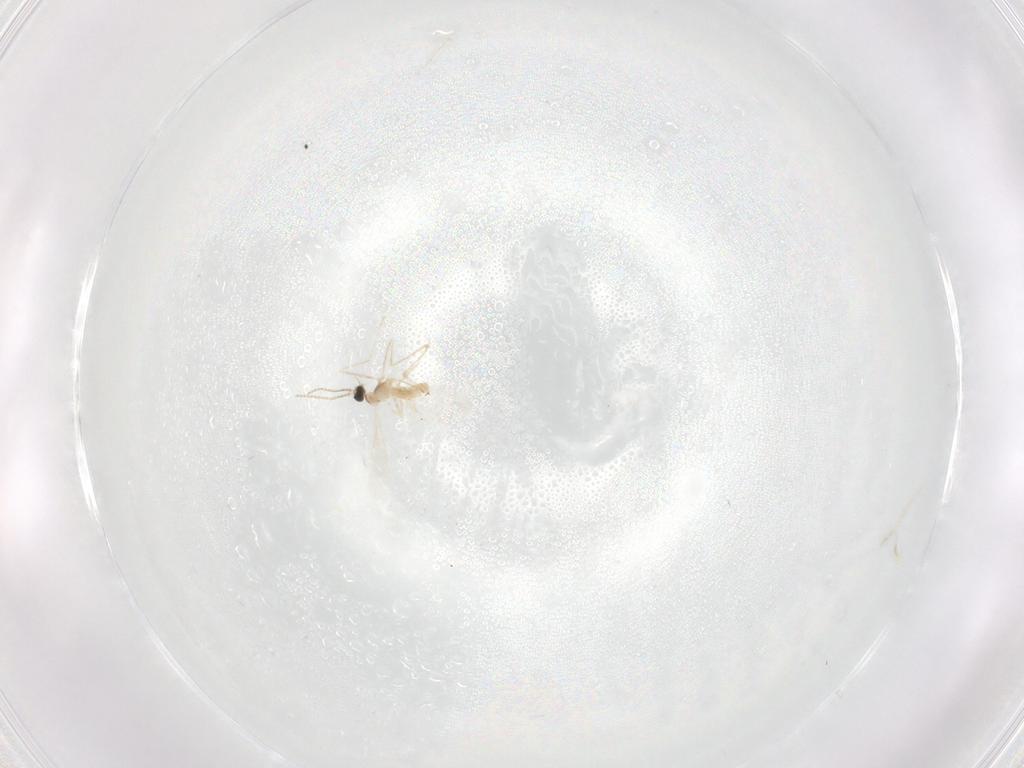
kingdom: Animalia
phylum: Arthropoda
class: Insecta
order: Diptera
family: Cecidomyiidae
